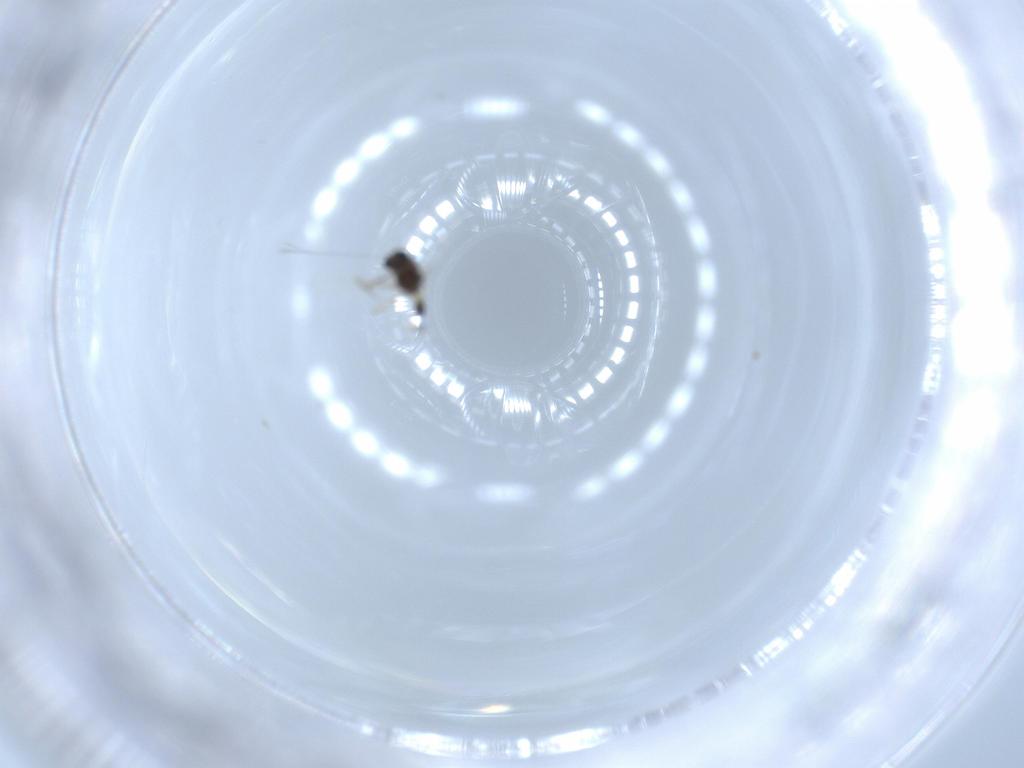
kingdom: Animalia
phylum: Arthropoda
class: Insecta
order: Diptera
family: Chironomidae
